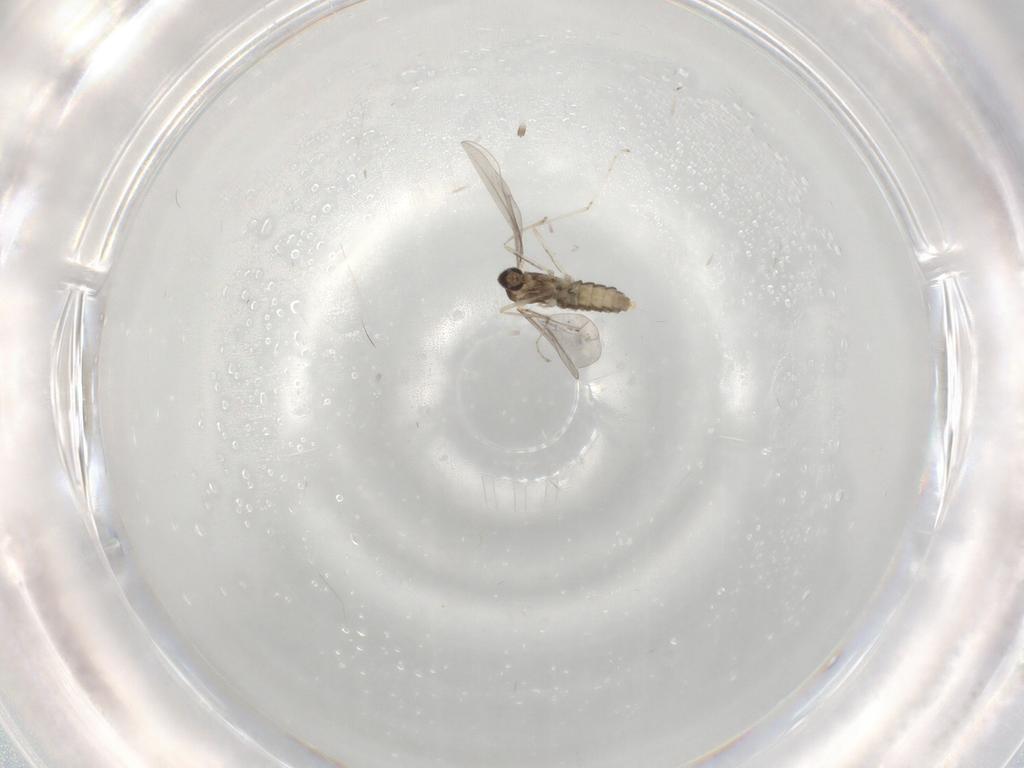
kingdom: Animalia
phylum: Arthropoda
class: Insecta
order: Diptera
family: Cecidomyiidae
